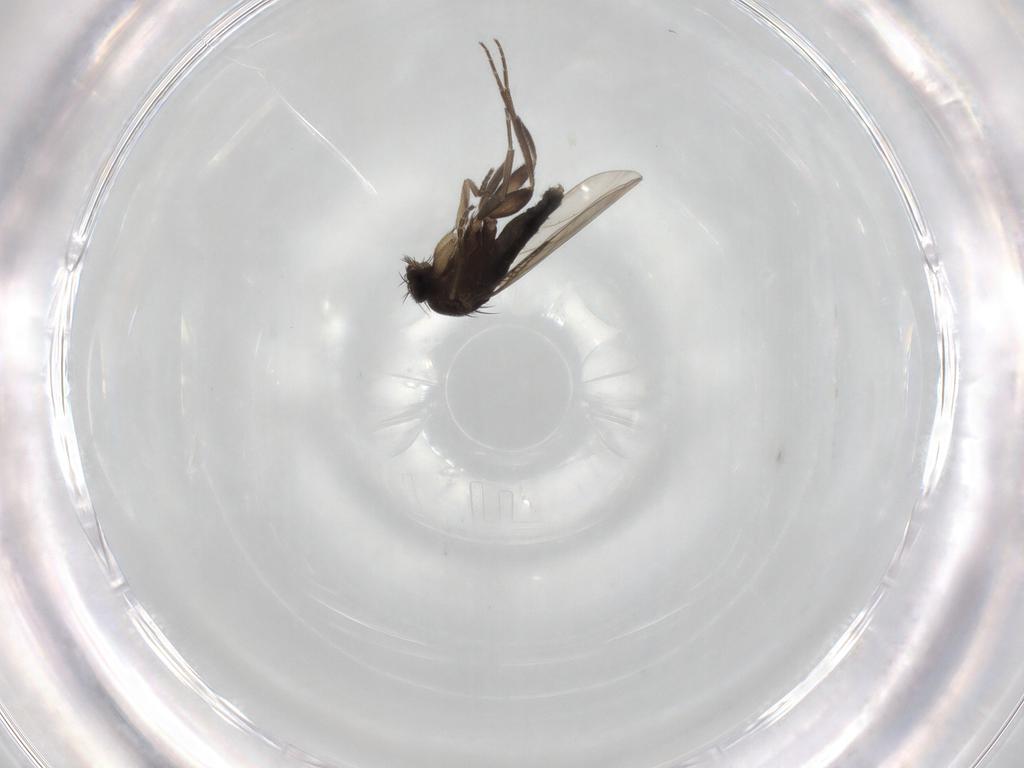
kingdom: Animalia
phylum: Arthropoda
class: Insecta
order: Diptera
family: Phoridae
